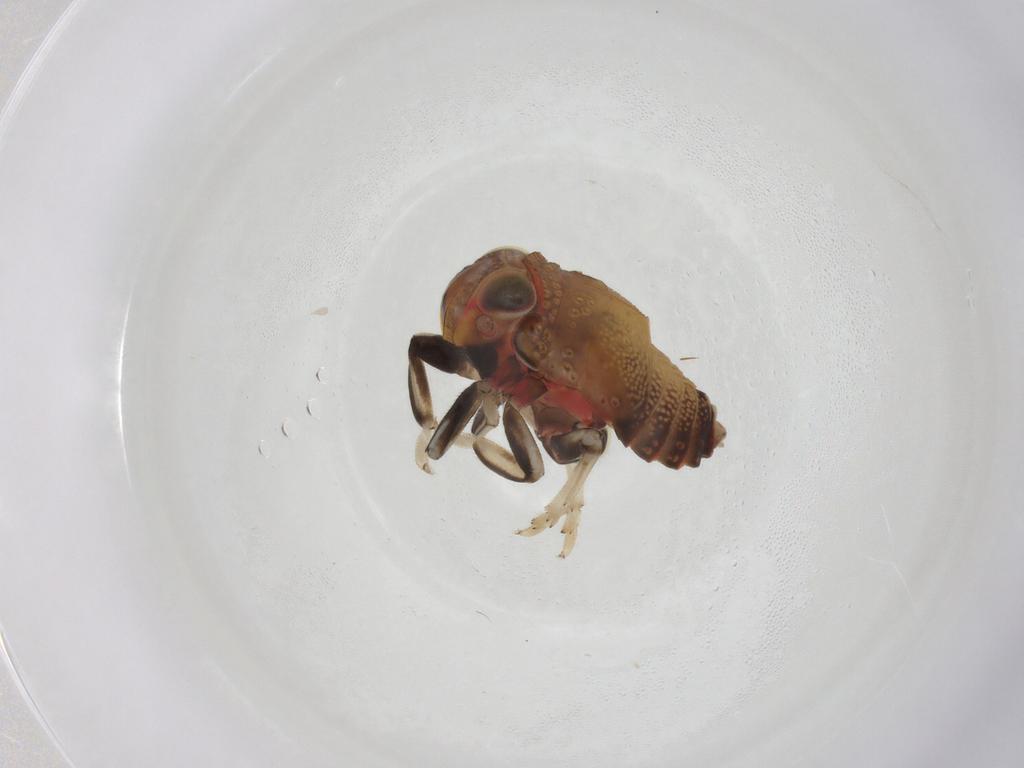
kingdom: Animalia
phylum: Arthropoda
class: Insecta
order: Hemiptera
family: Issidae
